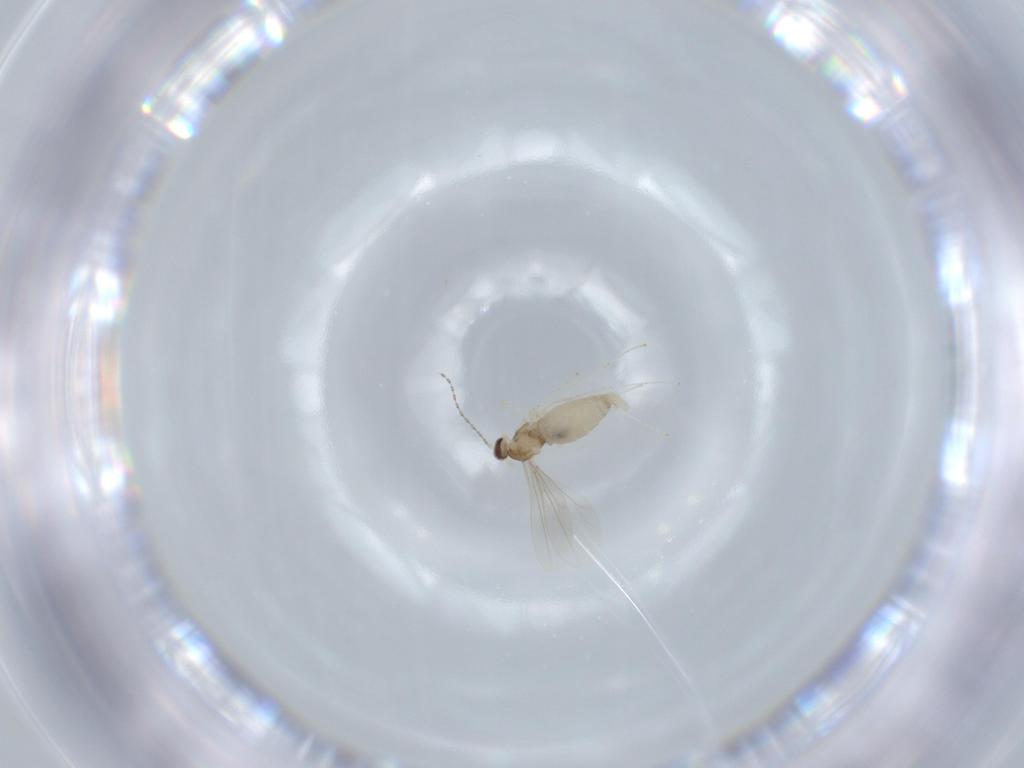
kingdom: Animalia
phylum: Arthropoda
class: Insecta
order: Diptera
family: Cecidomyiidae
